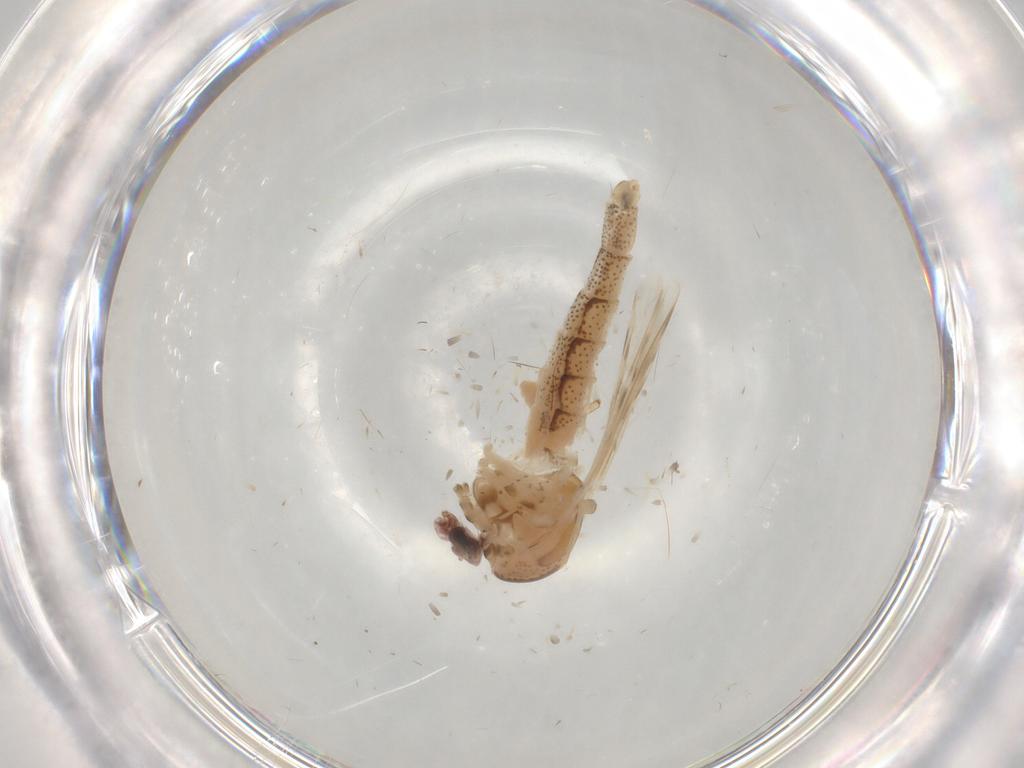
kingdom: Animalia
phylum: Arthropoda
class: Insecta
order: Diptera
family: Chaoboridae
